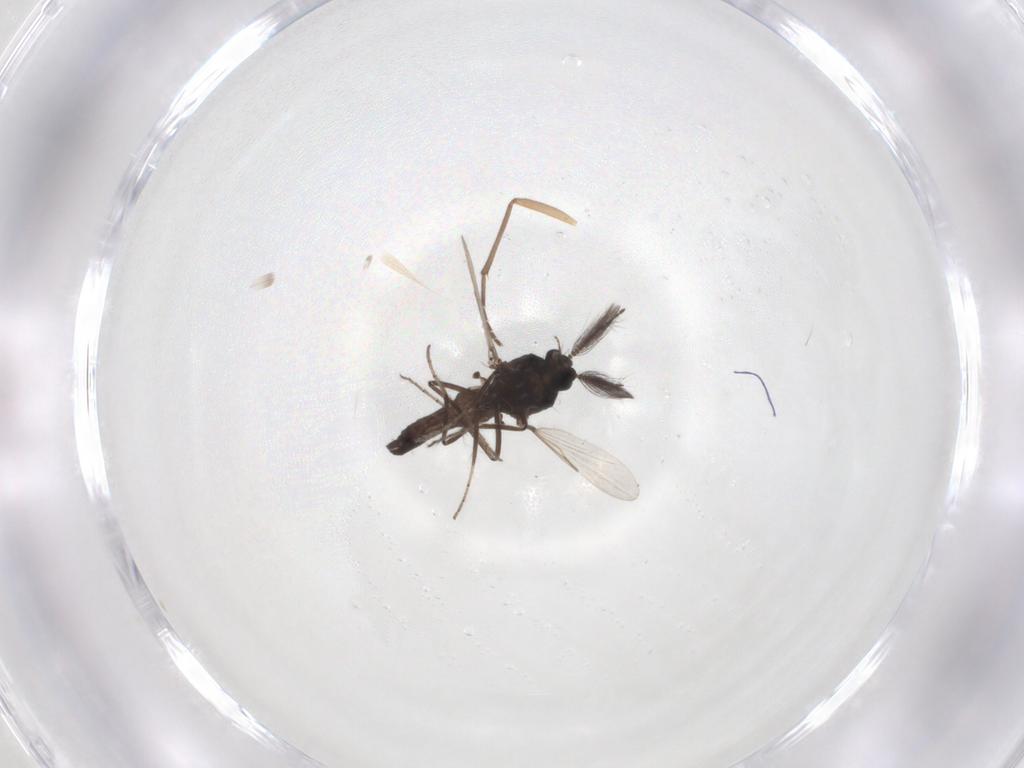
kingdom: Animalia
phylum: Arthropoda
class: Insecta
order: Diptera
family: Sciaridae
